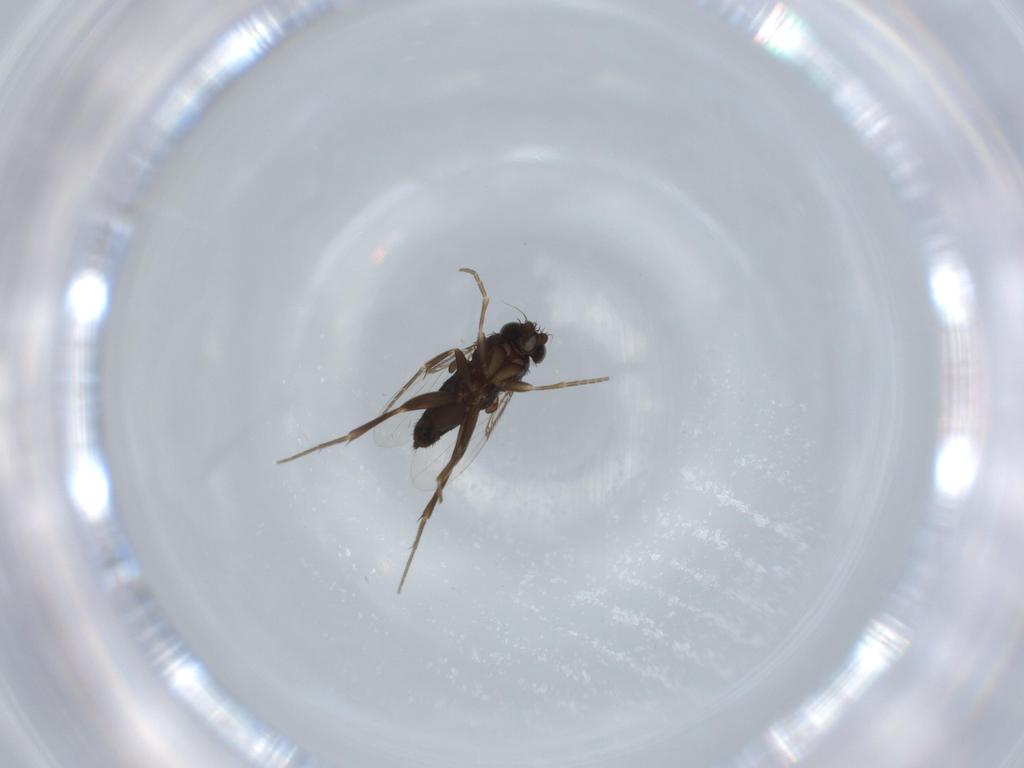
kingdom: Animalia
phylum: Arthropoda
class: Insecta
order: Diptera
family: Phoridae
